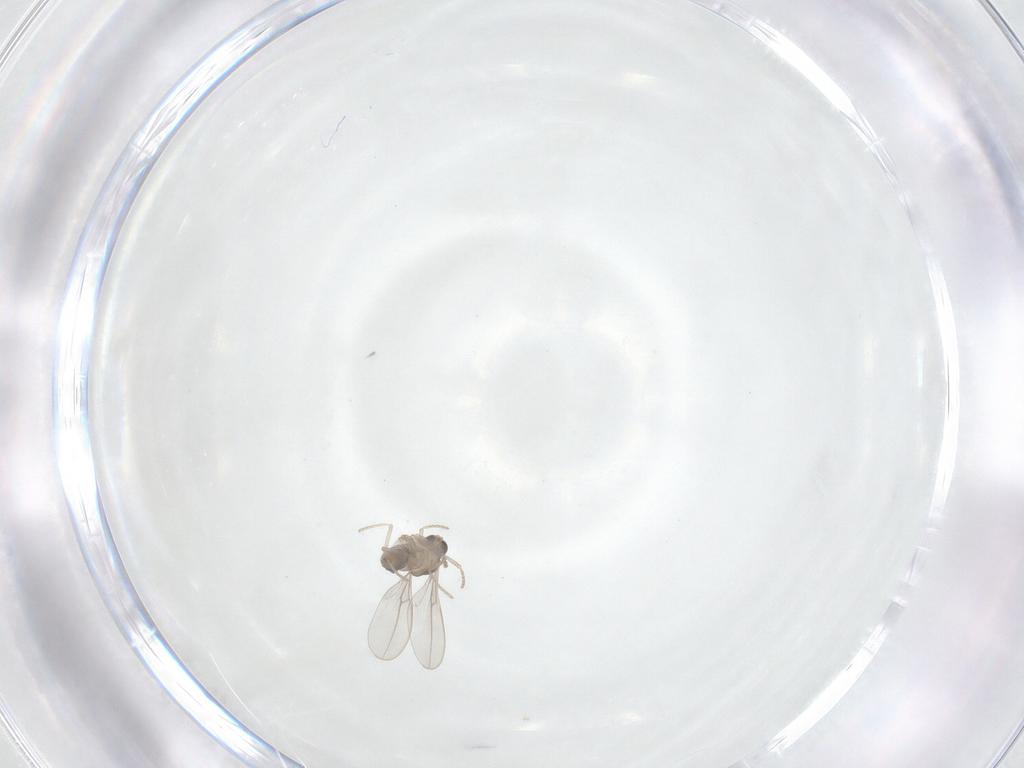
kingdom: Animalia
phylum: Arthropoda
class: Insecta
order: Diptera
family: Cecidomyiidae
